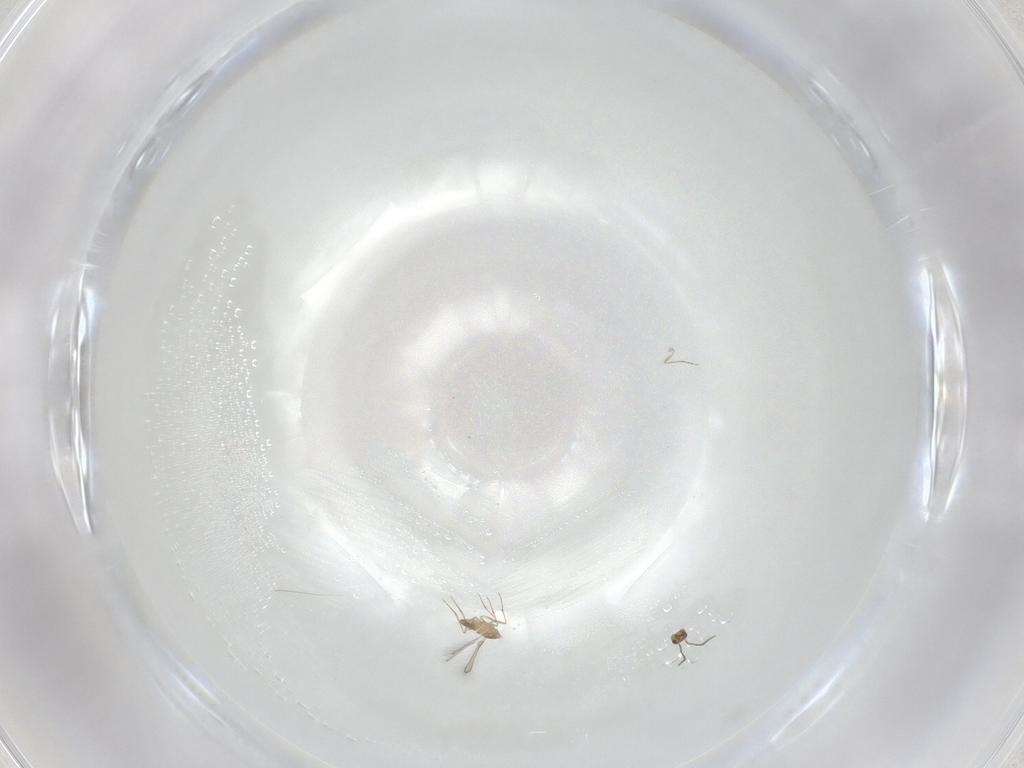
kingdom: Animalia
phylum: Arthropoda
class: Insecta
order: Hymenoptera
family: Mymaridae
